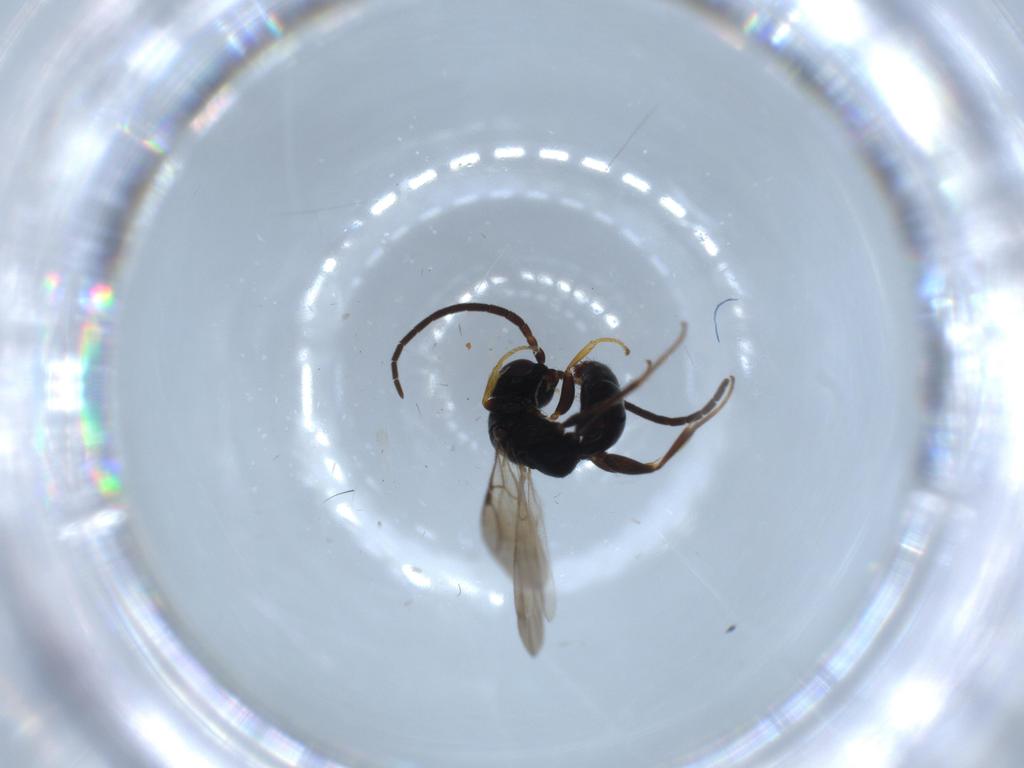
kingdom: Animalia
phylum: Arthropoda
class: Insecta
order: Hymenoptera
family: Bethylidae
